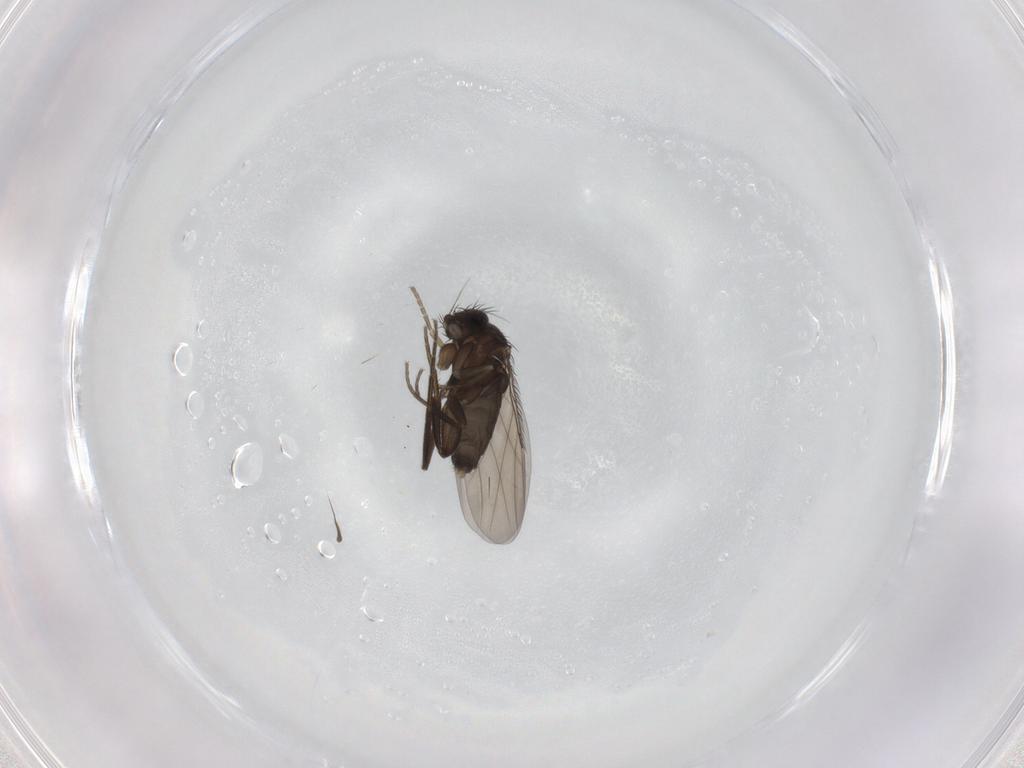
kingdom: Animalia
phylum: Arthropoda
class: Insecta
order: Diptera
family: Phoridae
